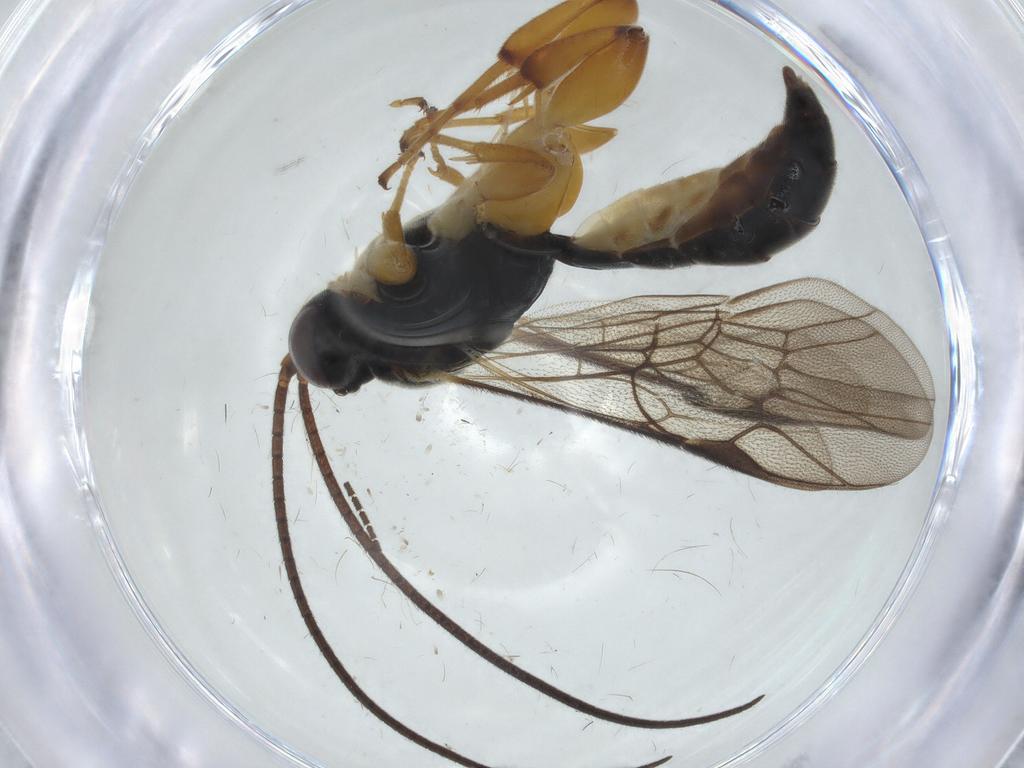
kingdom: Animalia
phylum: Arthropoda
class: Insecta
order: Hymenoptera
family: Ichneumonidae
